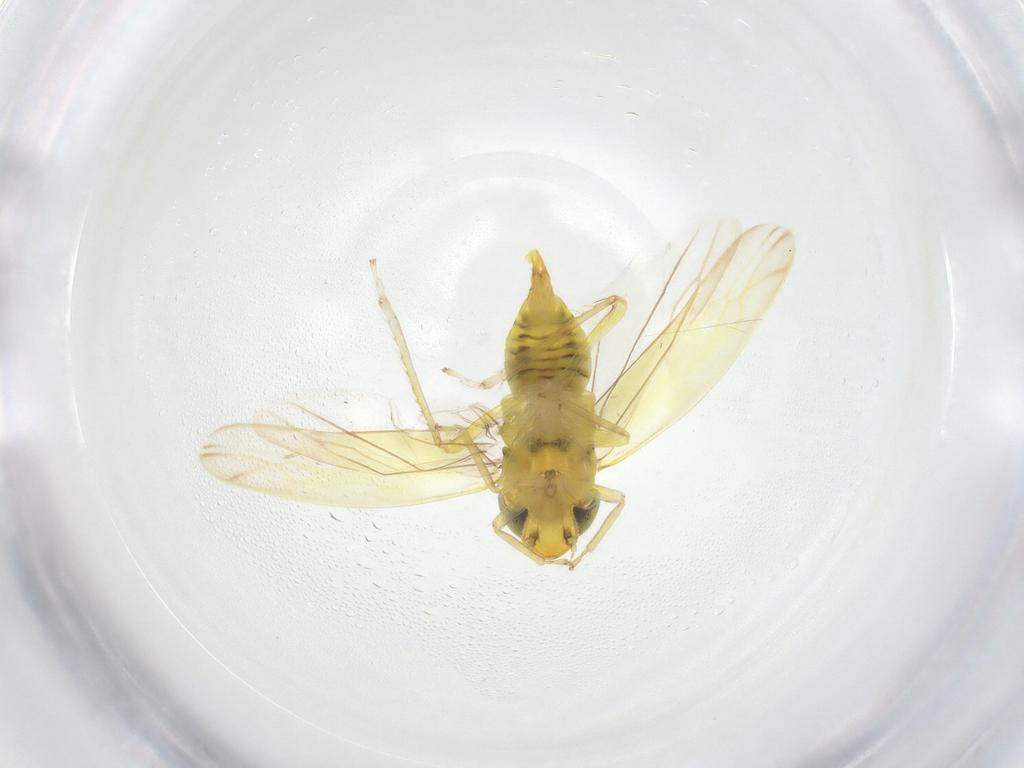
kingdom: Animalia
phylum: Arthropoda
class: Insecta
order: Hemiptera
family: Cicadellidae
